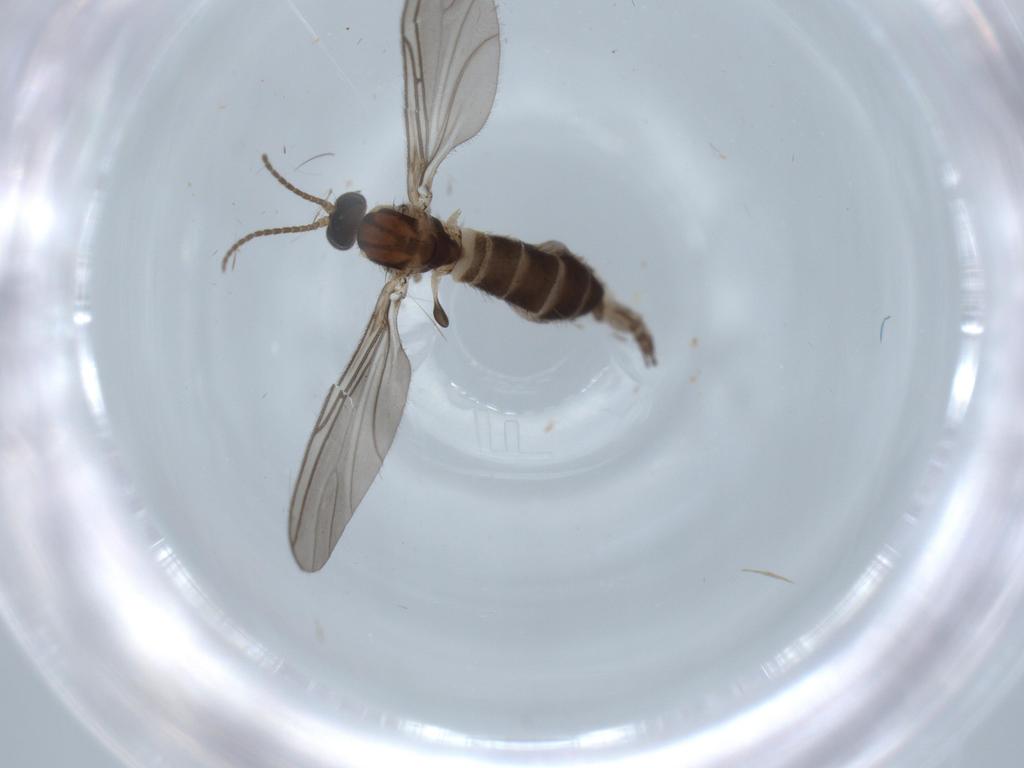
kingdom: Animalia
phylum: Arthropoda
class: Insecta
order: Diptera
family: Sciaridae
